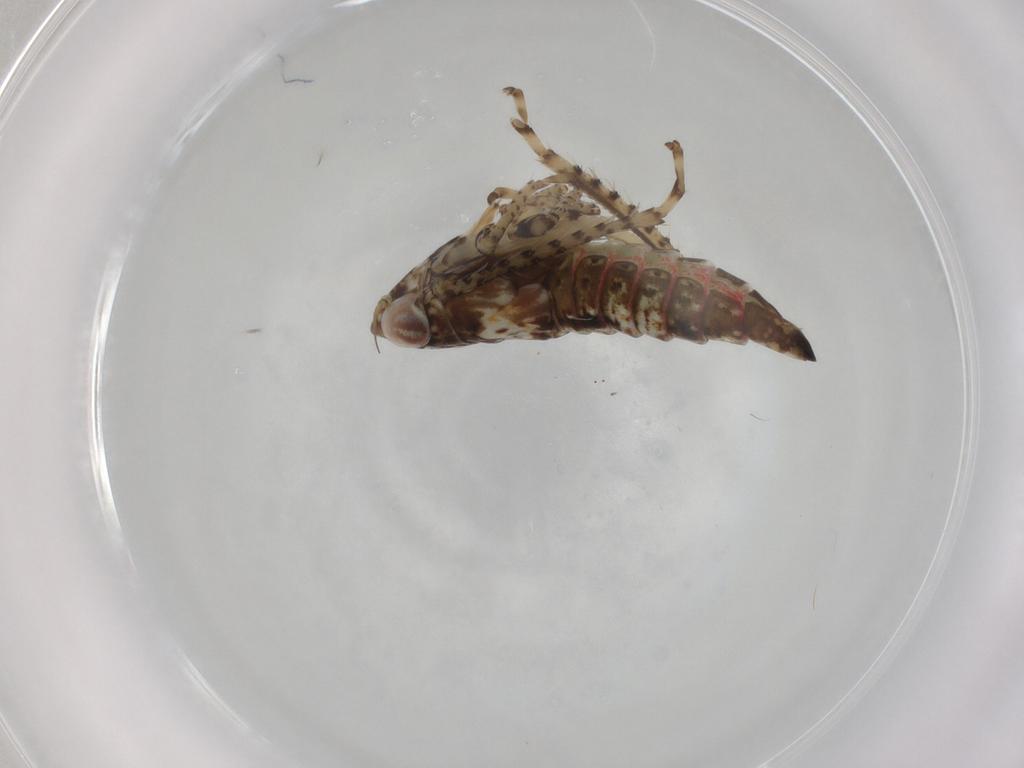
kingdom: Animalia
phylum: Arthropoda
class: Insecta
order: Hemiptera
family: Cicadellidae
